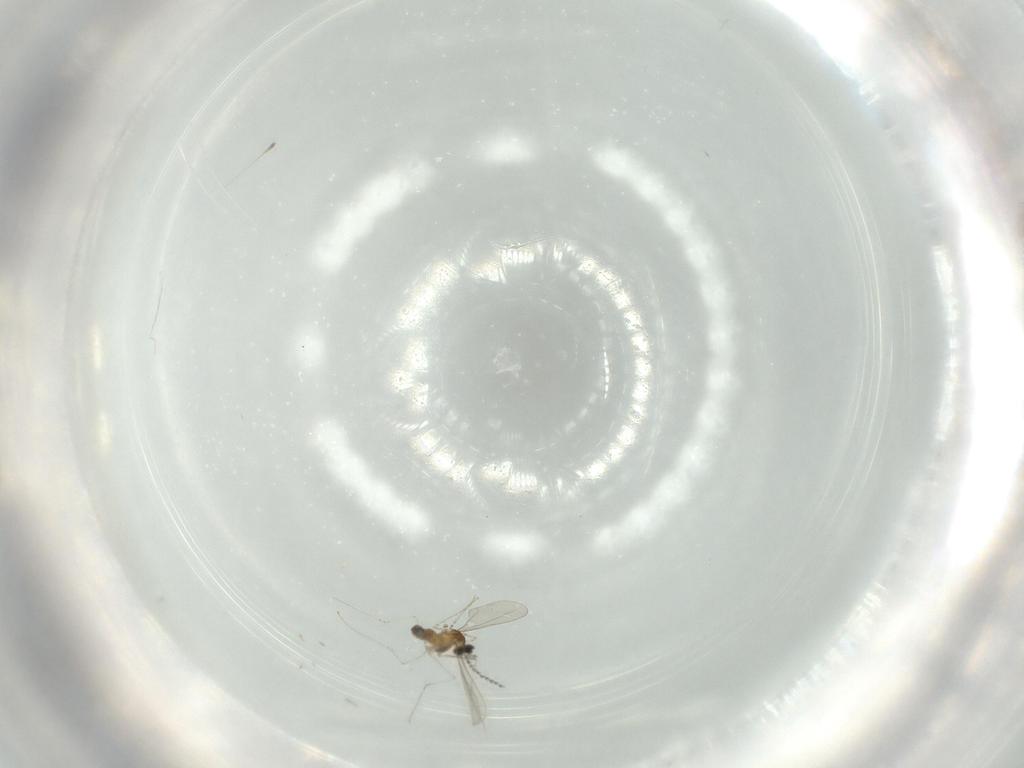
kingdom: Animalia
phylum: Arthropoda
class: Insecta
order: Diptera
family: Cecidomyiidae
